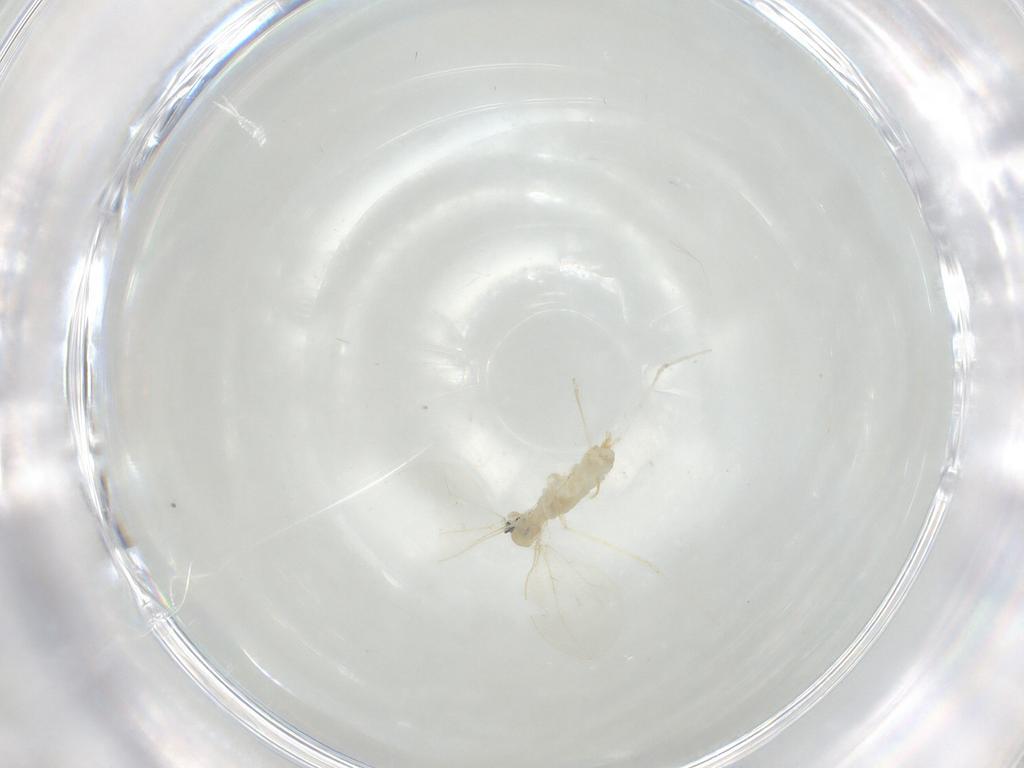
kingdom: Animalia
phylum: Arthropoda
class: Insecta
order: Diptera
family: Cecidomyiidae
